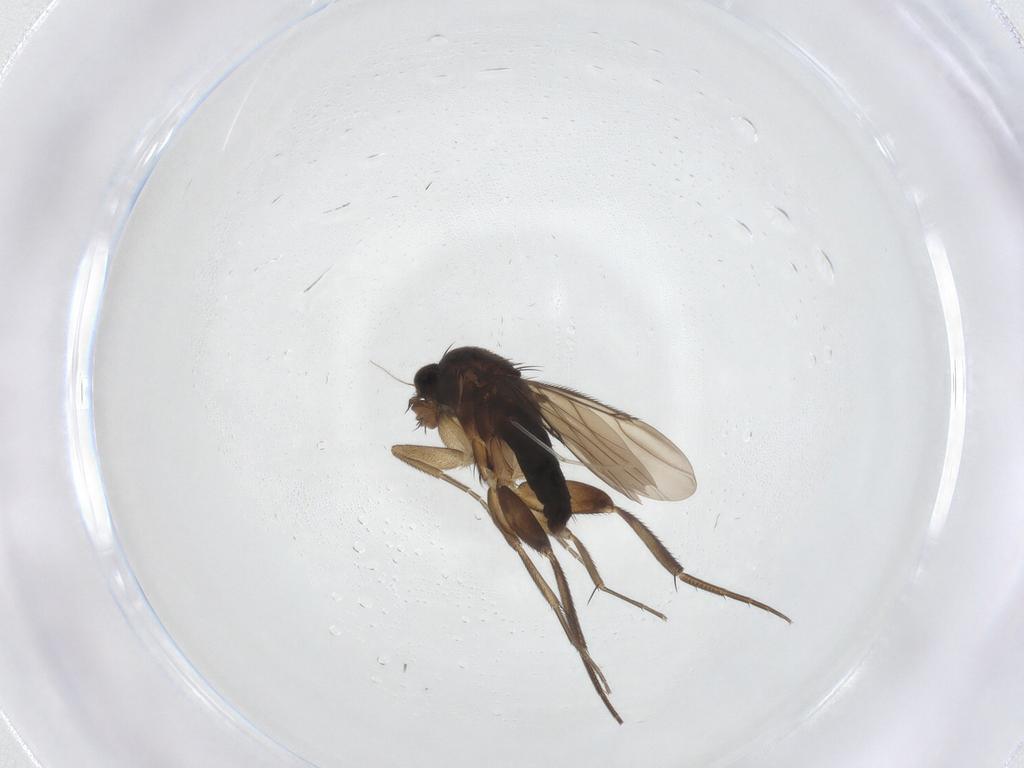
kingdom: Animalia
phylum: Arthropoda
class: Insecta
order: Diptera
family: Phoridae
